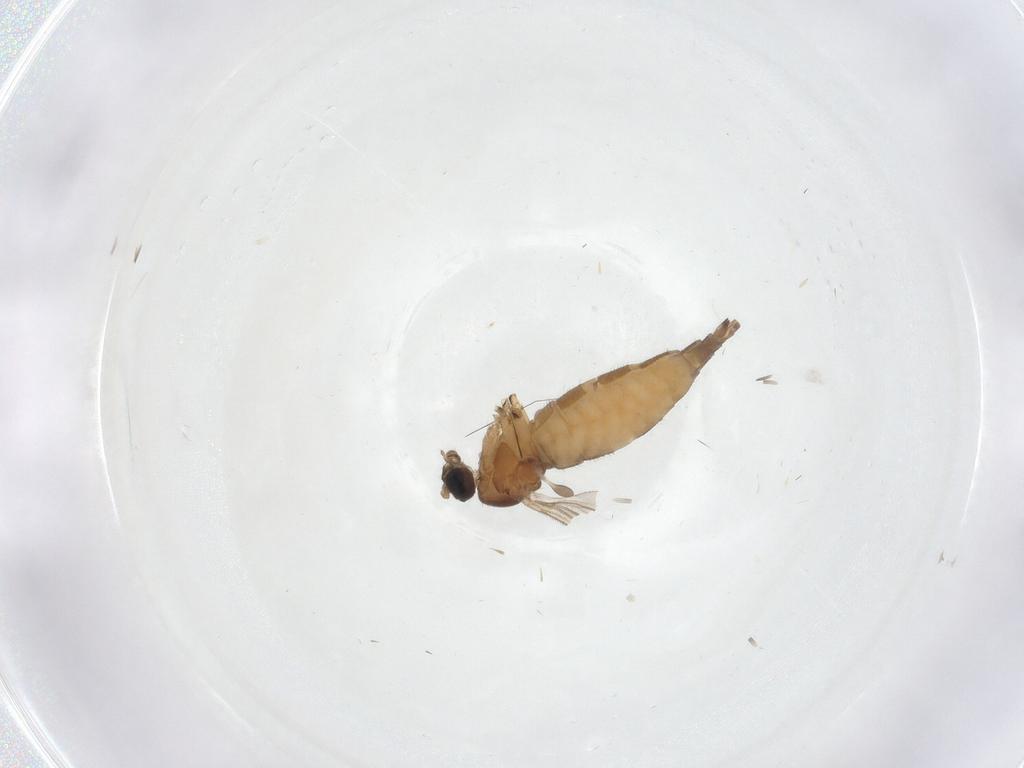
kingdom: Animalia
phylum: Arthropoda
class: Insecta
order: Diptera
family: Sciaridae
